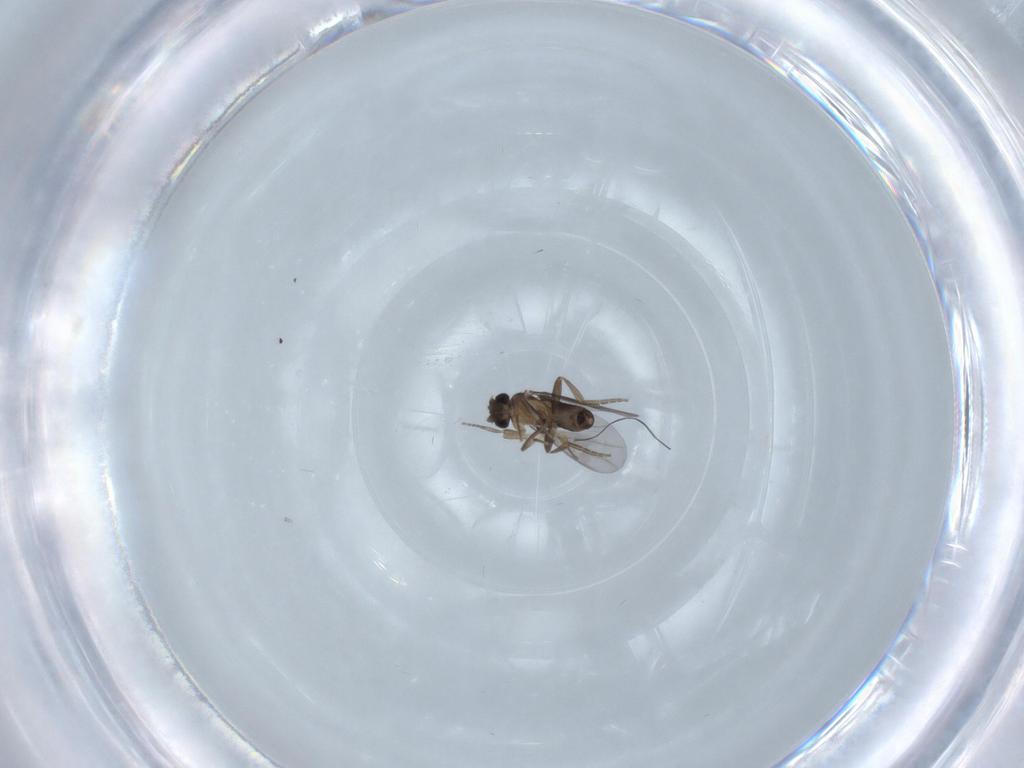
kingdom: Animalia
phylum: Arthropoda
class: Insecta
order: Diptera
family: Chironomidae
